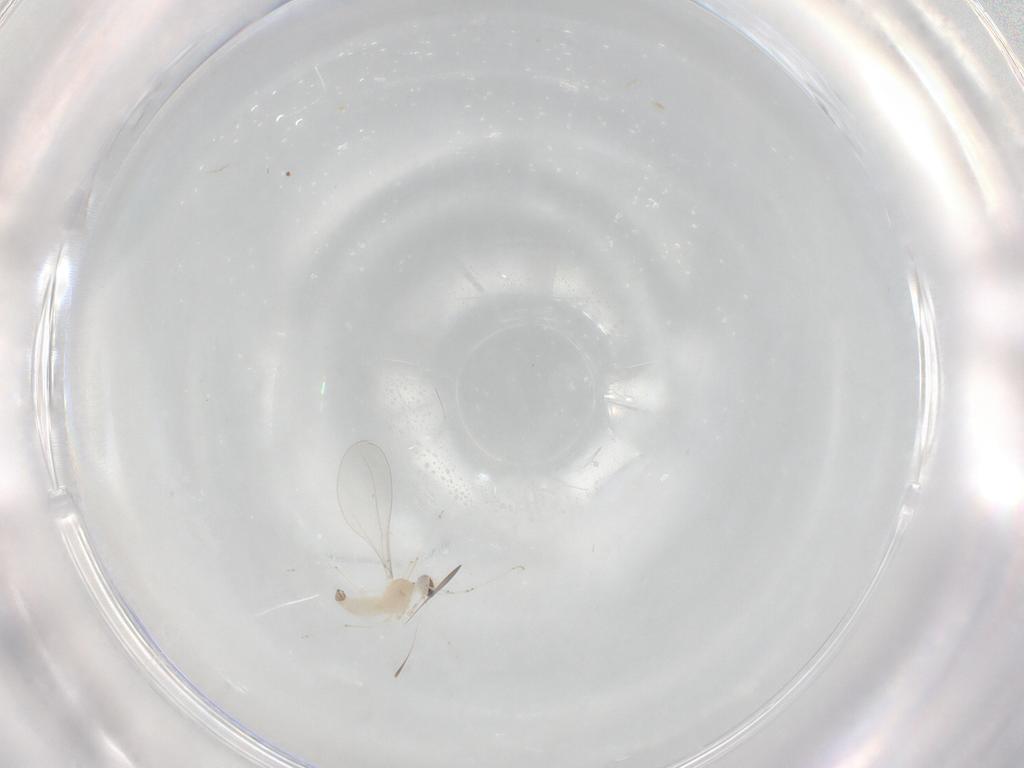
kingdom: Animalia
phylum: Arthropoda
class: Insecta
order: Diptera
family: Cecidomyiidae
